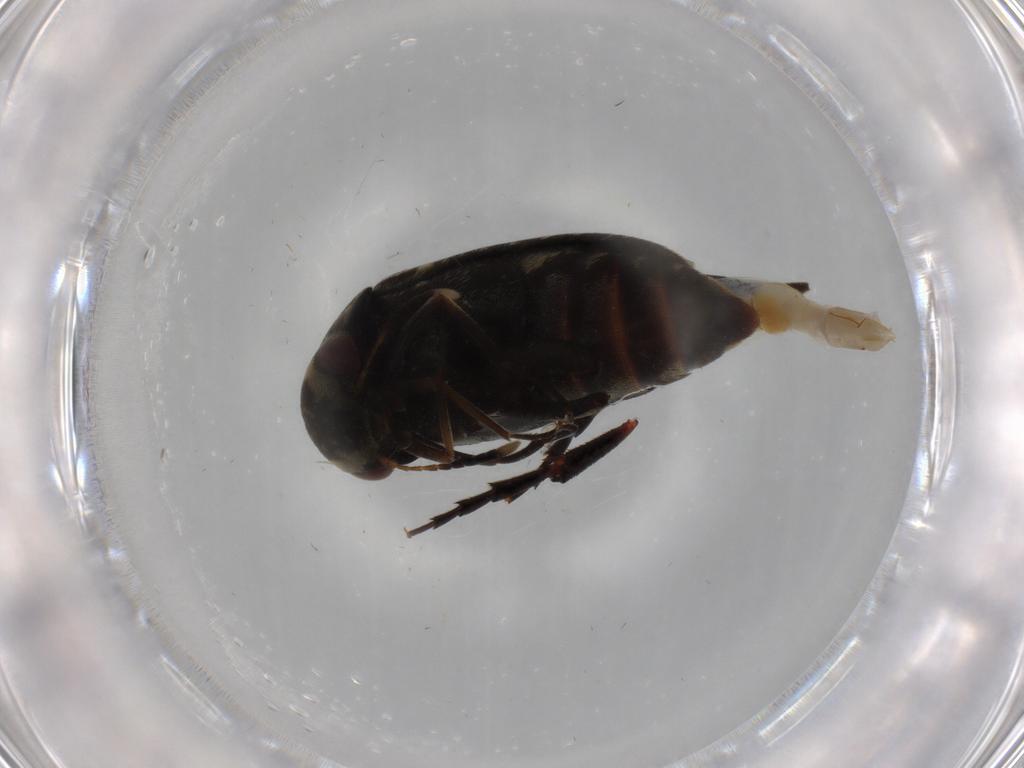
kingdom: Animalia
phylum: Arthropoda
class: Insecta
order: Coleoptera
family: Anthribidae
